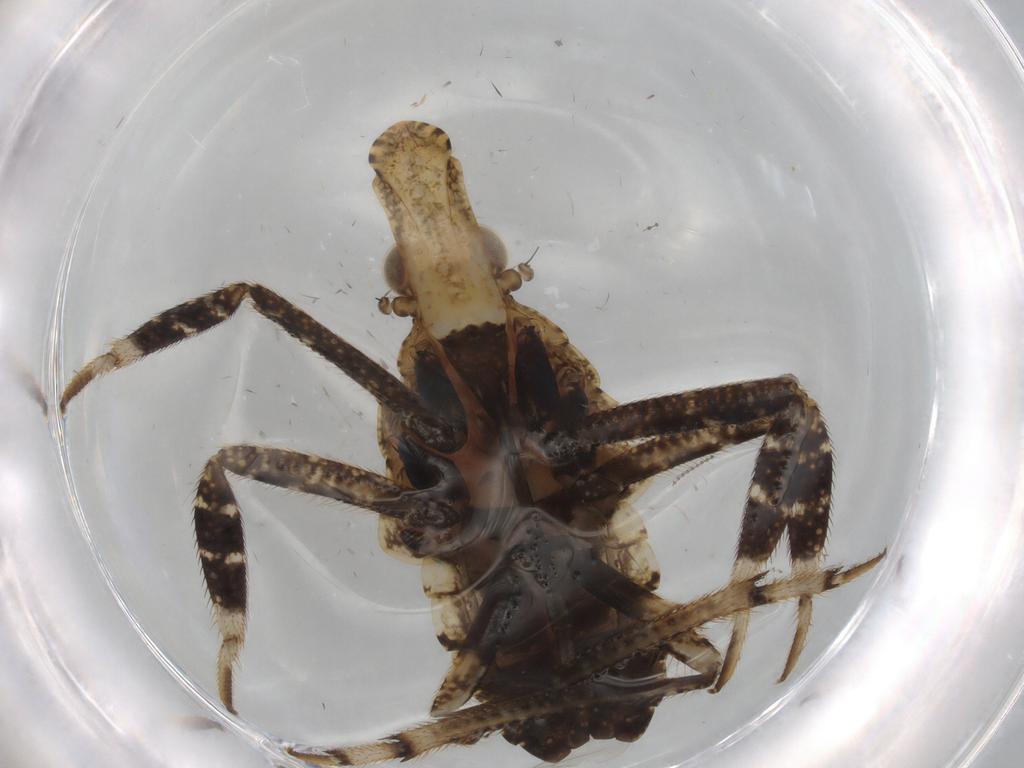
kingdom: Animalia
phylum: Arthropoda
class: Insecta
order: Hemiptera
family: Fulgoridae
